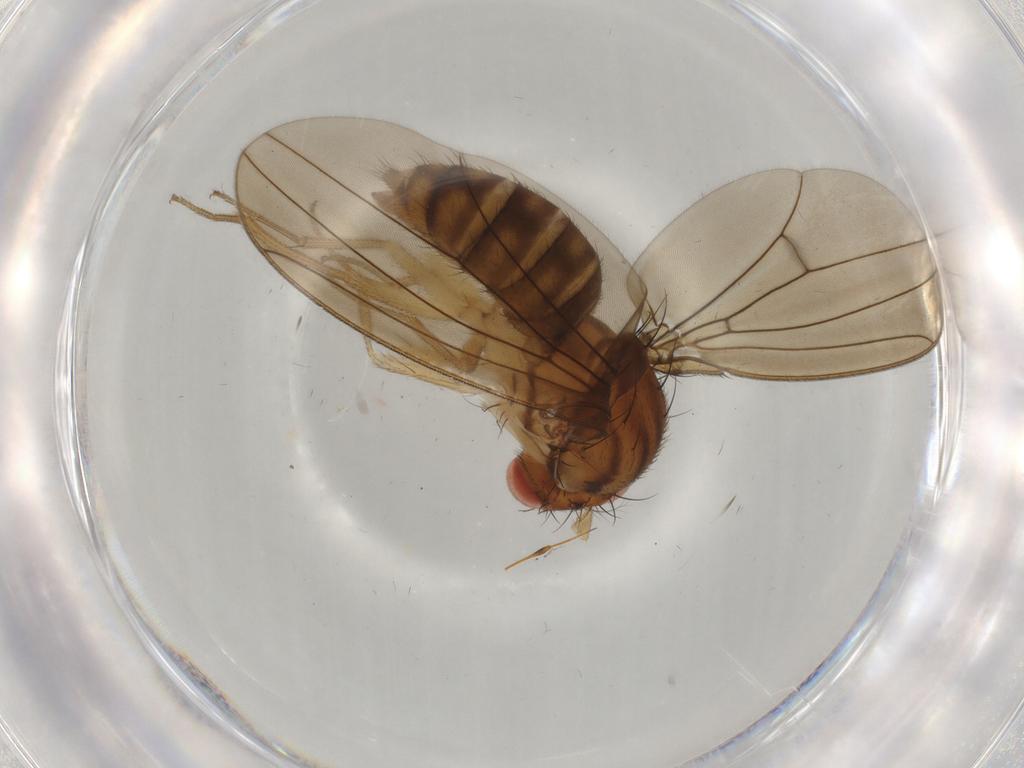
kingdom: Animalia
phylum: Arthropoda
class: Insecta
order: Diptera
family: Drosophilidae
